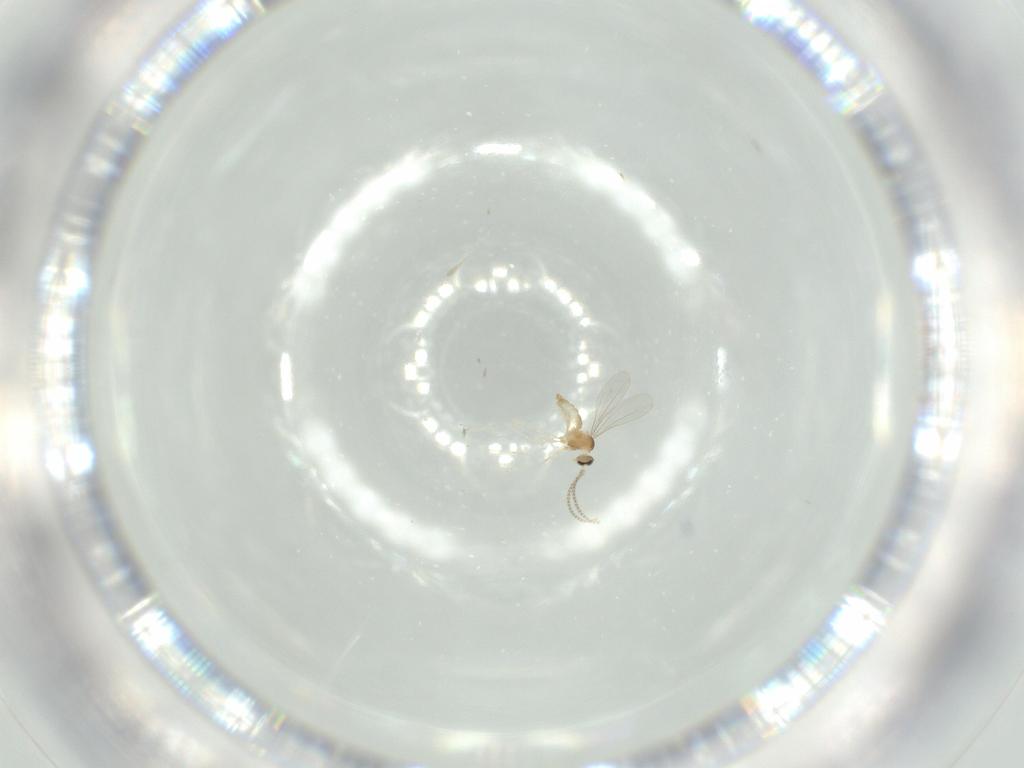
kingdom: Animalia
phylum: Arthropoda
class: Insecta
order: Diptera
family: Cecidomyiidae
